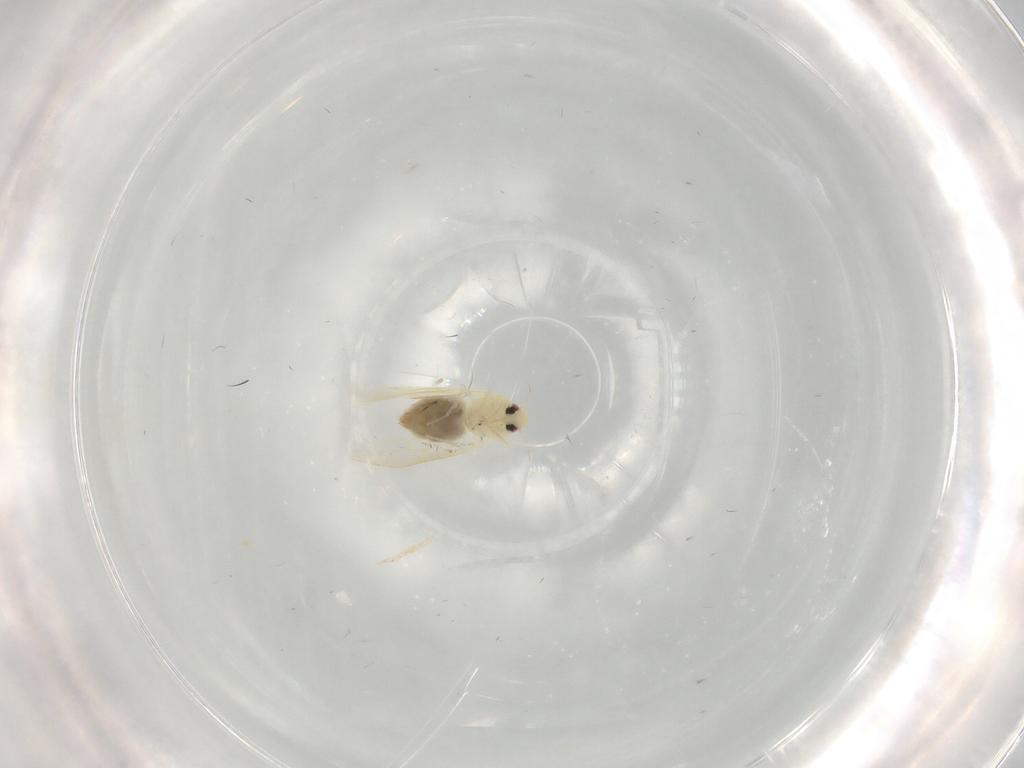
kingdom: Animalia
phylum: Arthropoda
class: Insecta
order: Hemiptera
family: Aleyrodidae
